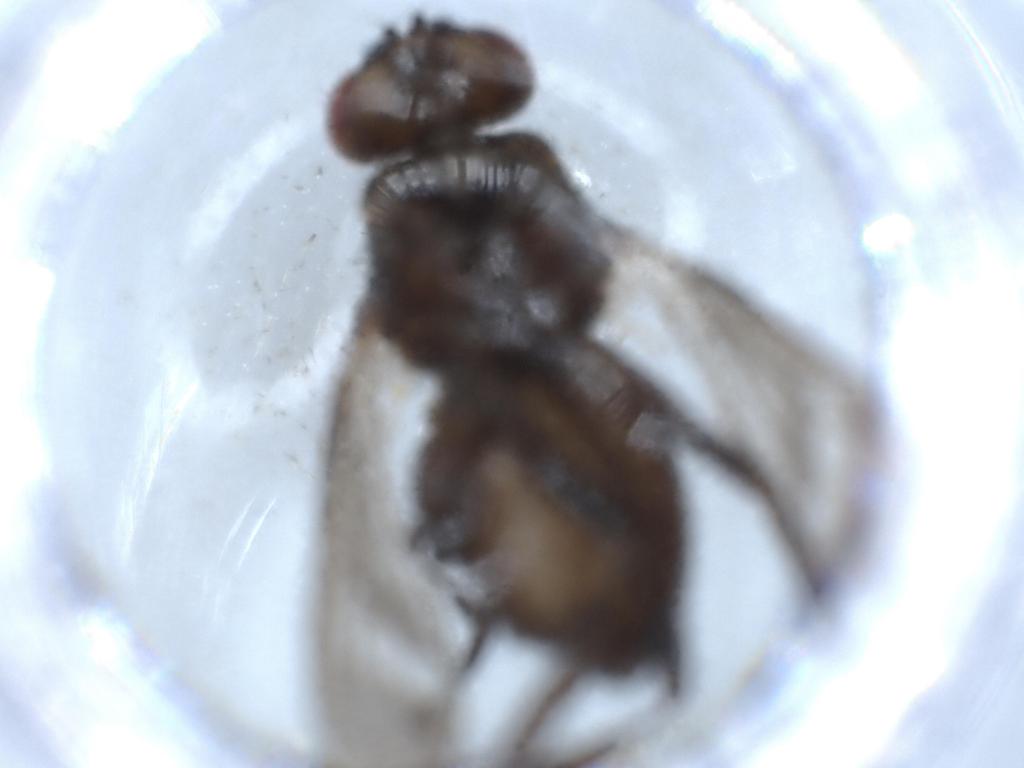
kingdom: Animalia
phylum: Arthropoda
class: Insecta
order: Diptera
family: Calliphoridae
